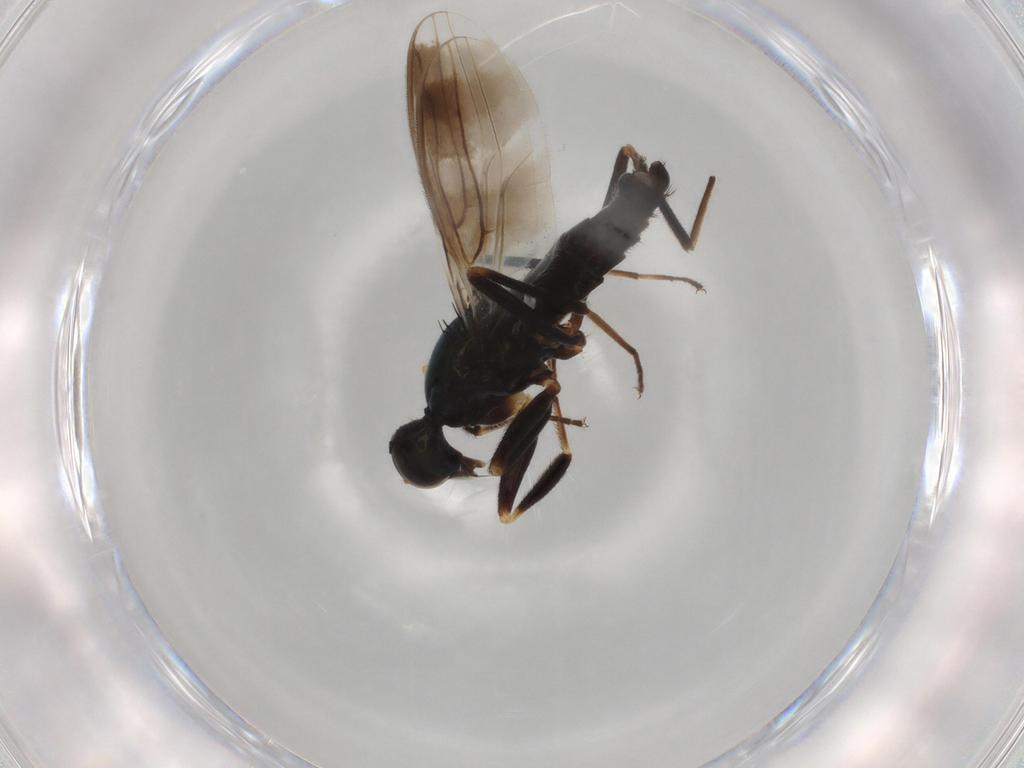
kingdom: Animalia
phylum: Arthropoda
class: Insecta
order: Diptera
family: Hybotidae
